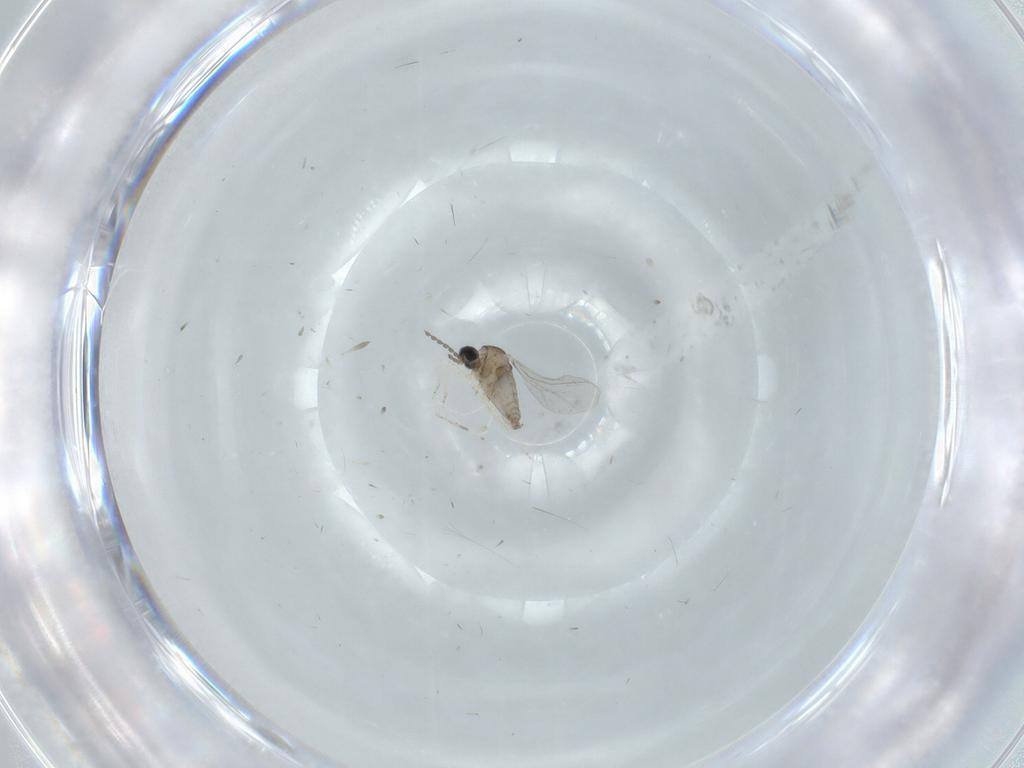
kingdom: Animalia
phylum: Arthropoda
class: Insecta
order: Diptera
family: Cecidomyiidae
